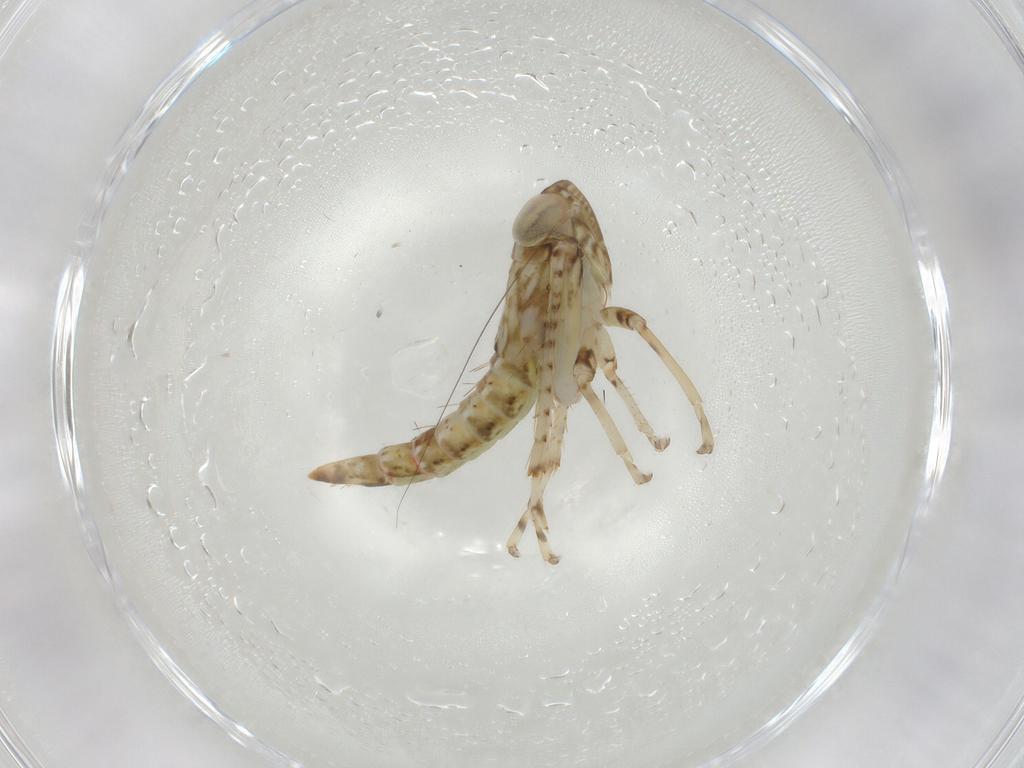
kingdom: Animalia
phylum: Arthropoda
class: Insecta
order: Hemiptera
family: Cicadellidae
